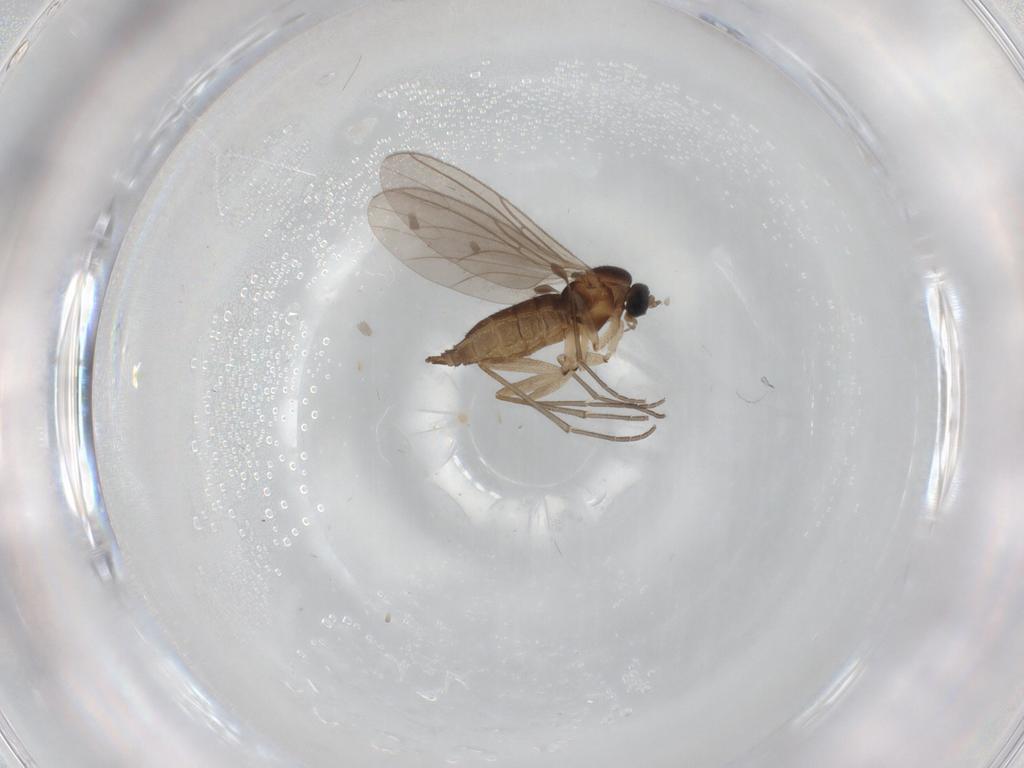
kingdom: Animalia
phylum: Arthropoda
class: Insecta
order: Diptera
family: Sciaridae
